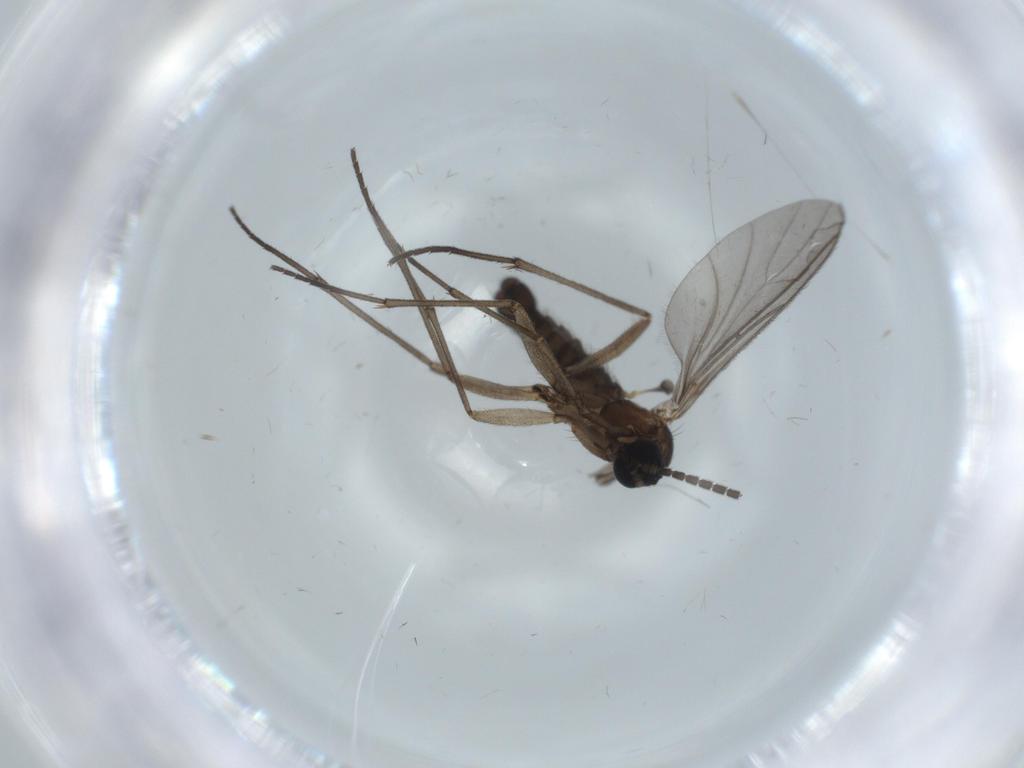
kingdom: Animalia
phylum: Arthropoda
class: Insecta
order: Diptera
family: Sciaridae
